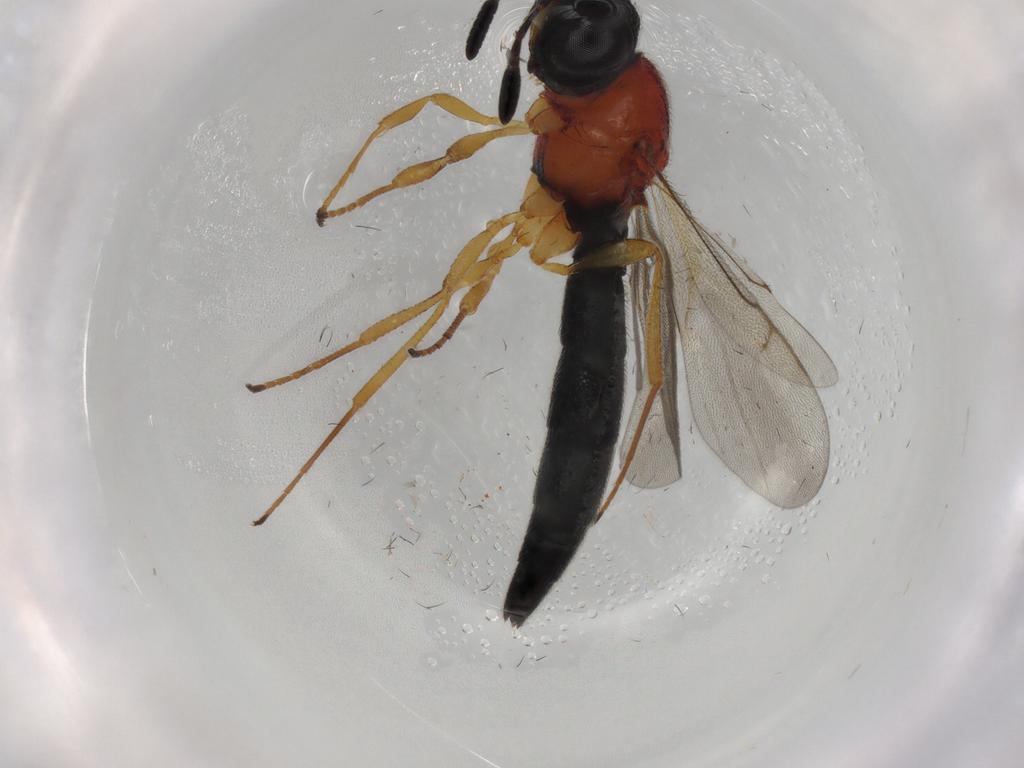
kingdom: Animalia
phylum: Arthropoda
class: Insecta
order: Hymenoptera
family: Scelionidae
